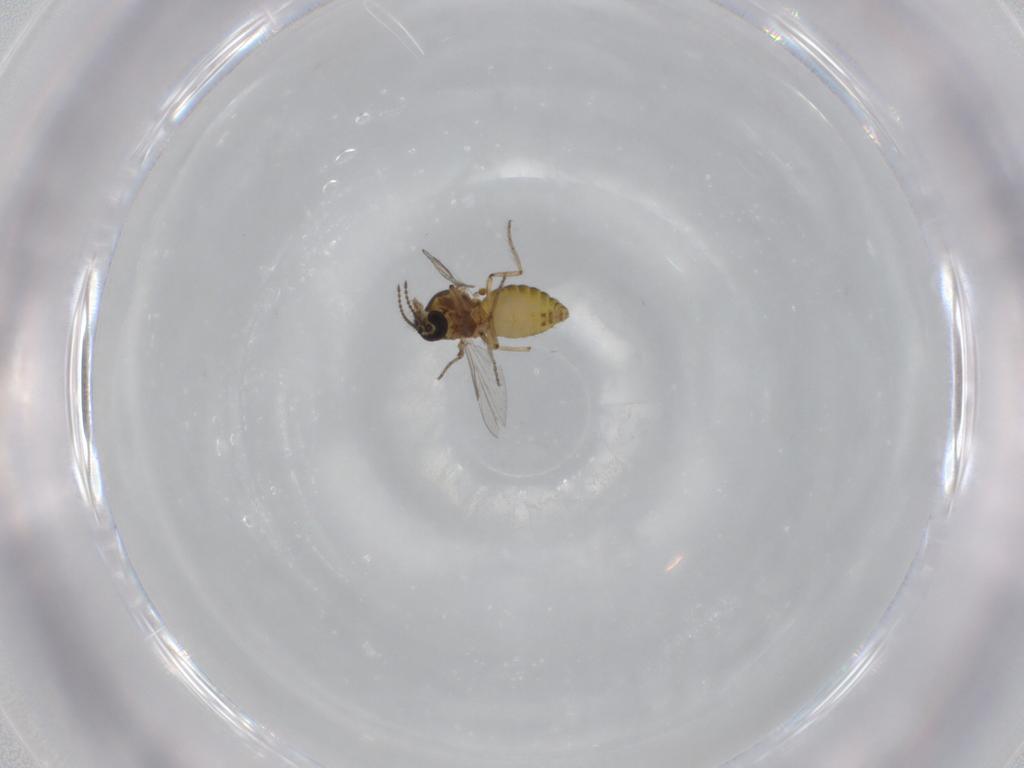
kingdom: Animalia
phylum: Arthropoda
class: Insecta
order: Diptera
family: Ceratopogonidae
